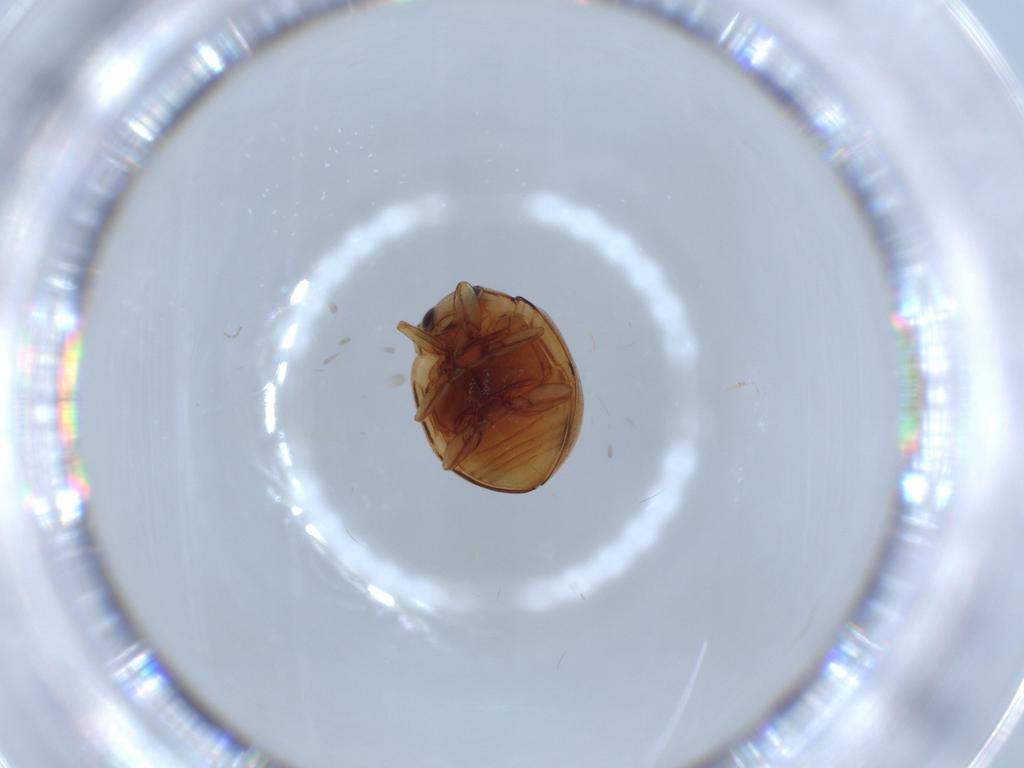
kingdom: Animalia
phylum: Arthropoda
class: Insecta
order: Coleoptera
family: Coccinellidae
